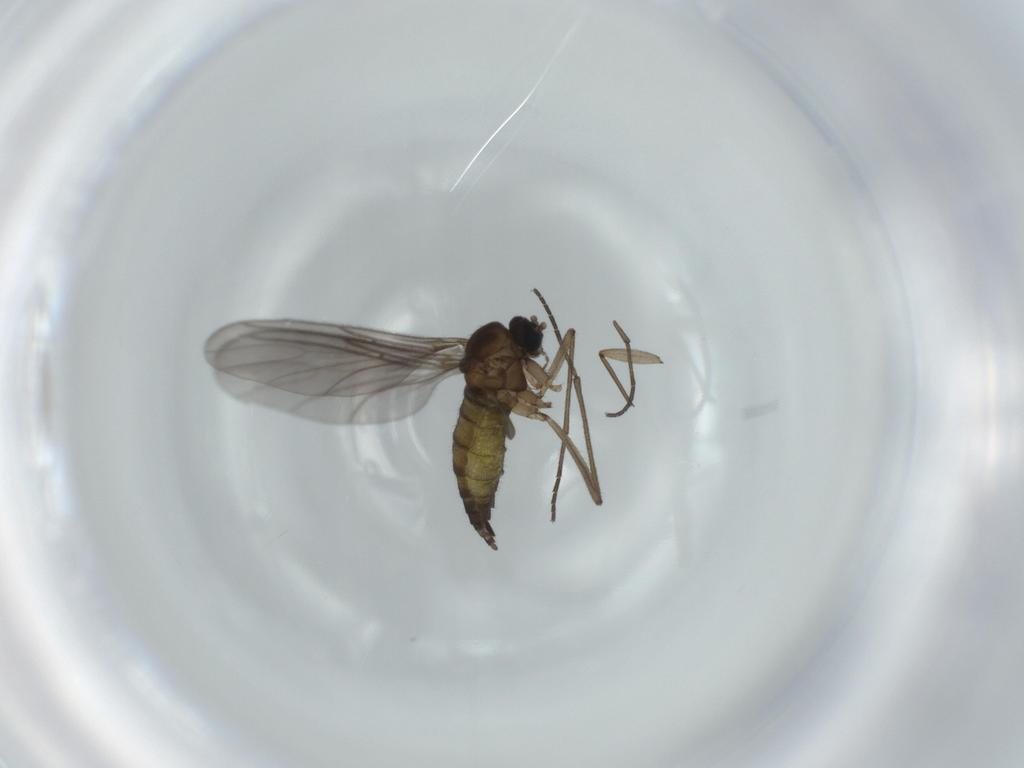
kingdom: Animalia
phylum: Arthropoda
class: Insecta
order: Diptera
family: Sciaridae
